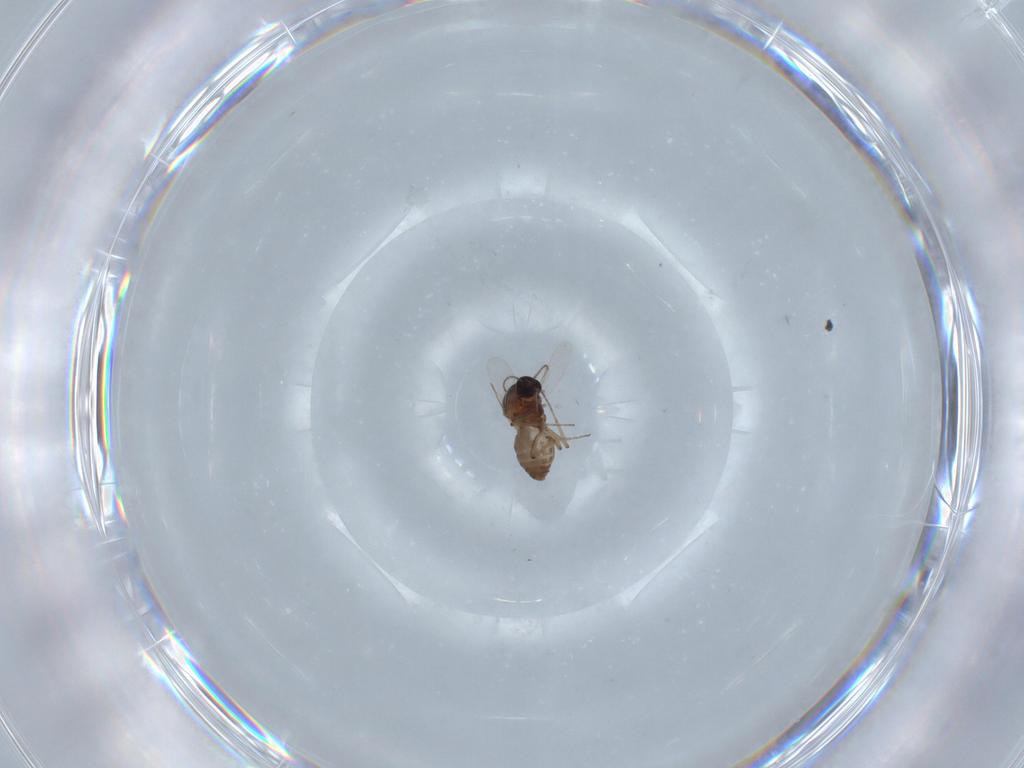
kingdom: Animalia
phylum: Arthropoda
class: Insecta
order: Diptera
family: Ceratopogonidae
